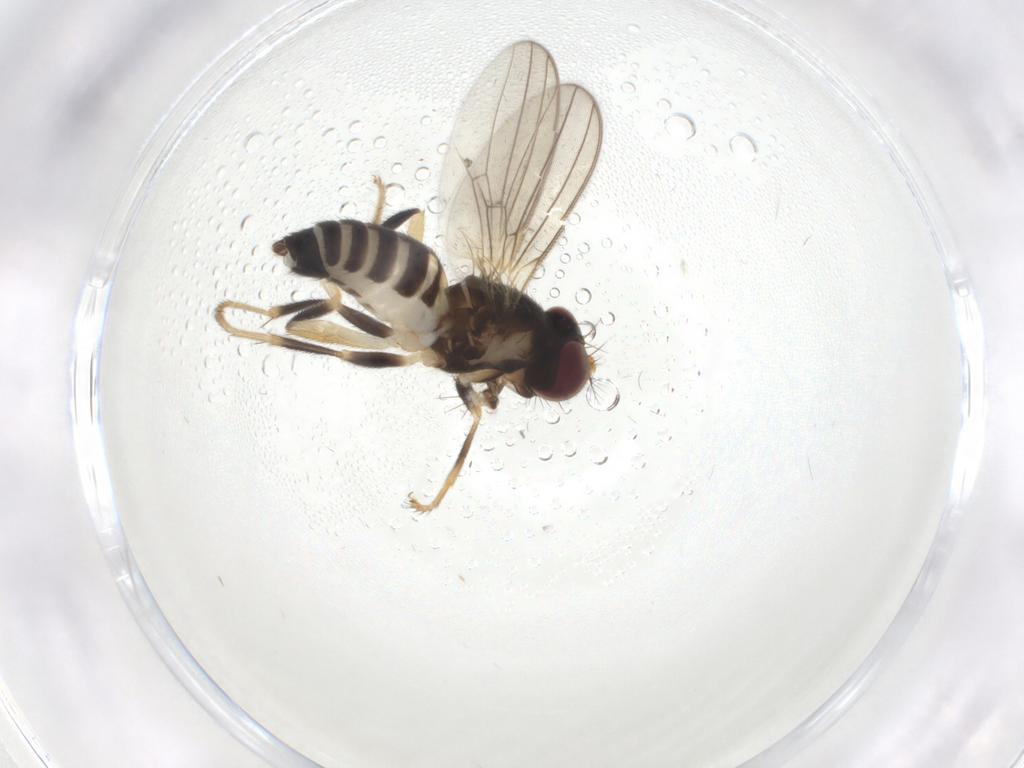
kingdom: Animalia
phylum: Arthropoda
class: Insecta
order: Diptera
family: Periscelididae
